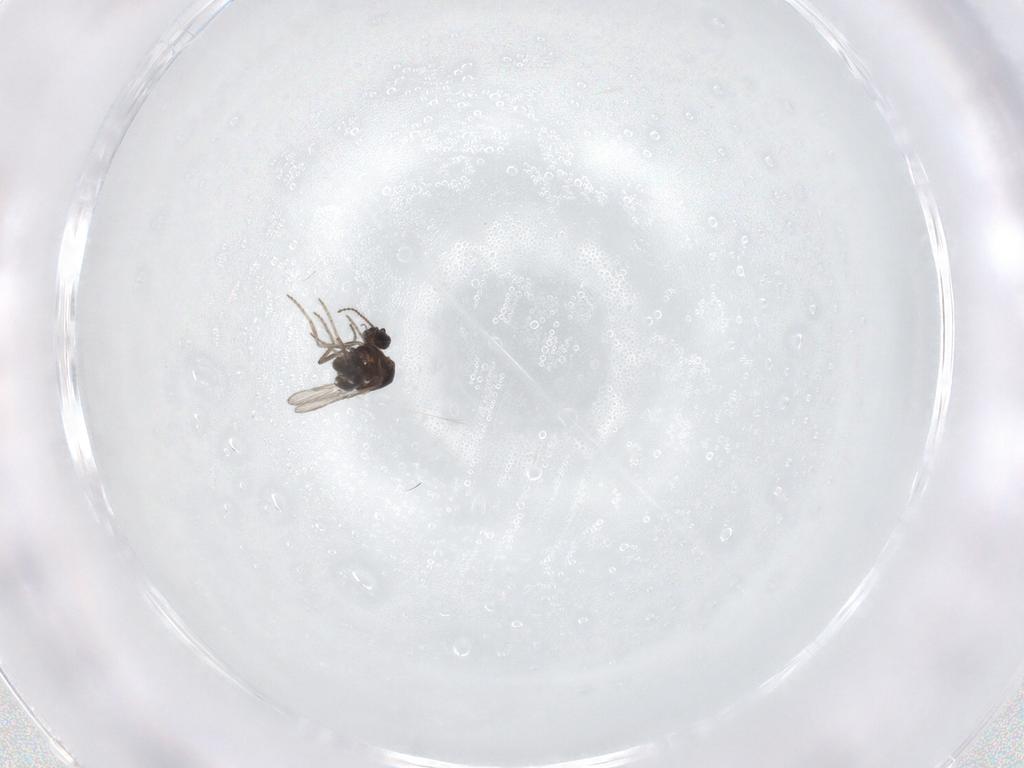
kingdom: Animalia
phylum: Arthropoda
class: Insecta
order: Diptera
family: Ceratopogonidae
